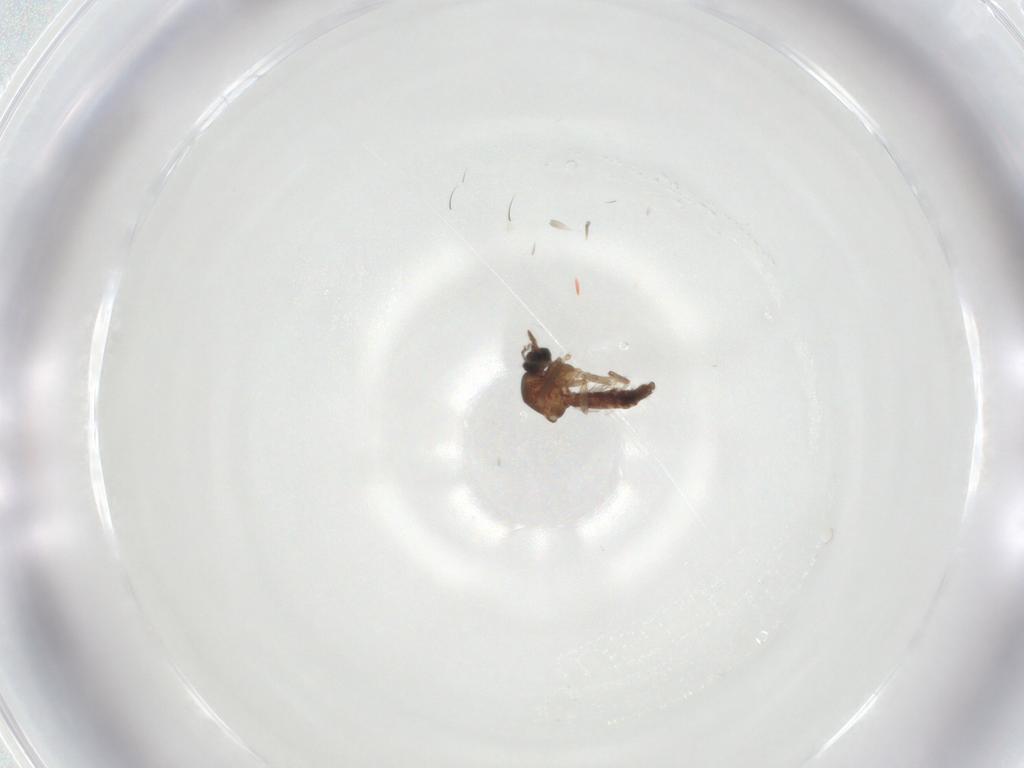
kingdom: Animalia
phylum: Arthropoda
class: Insecta
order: Diptera
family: Ceratopogonidae
